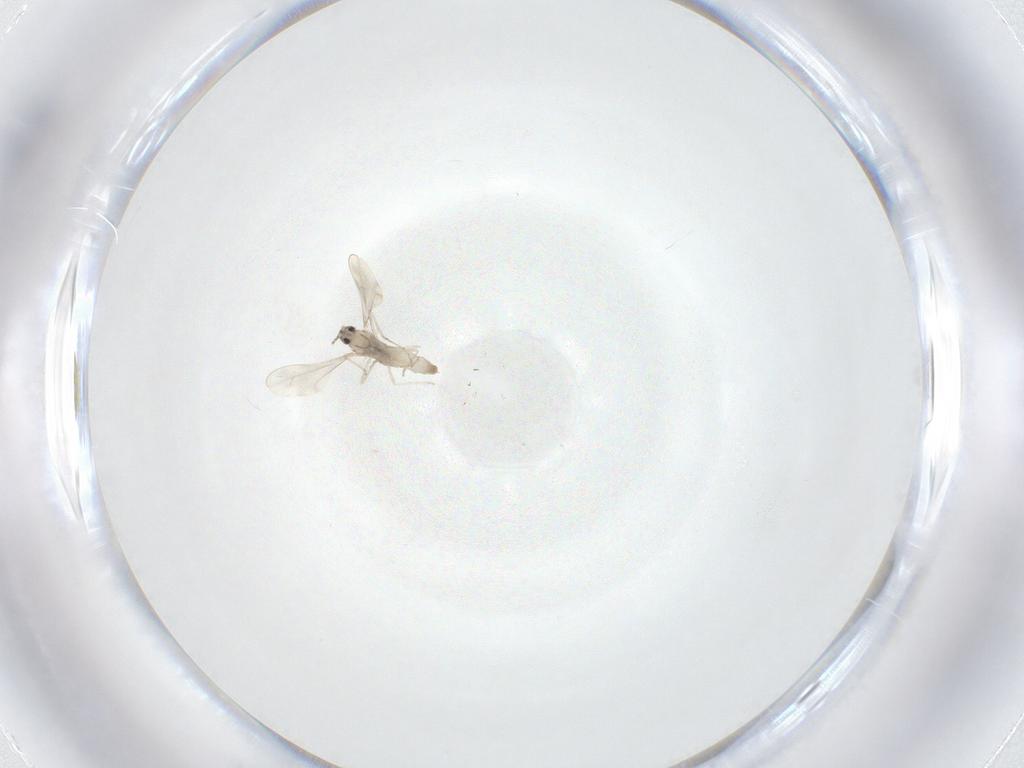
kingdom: Animalia
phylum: Arthropoda
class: Insecta
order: Diptera
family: Cecidomyiidae
